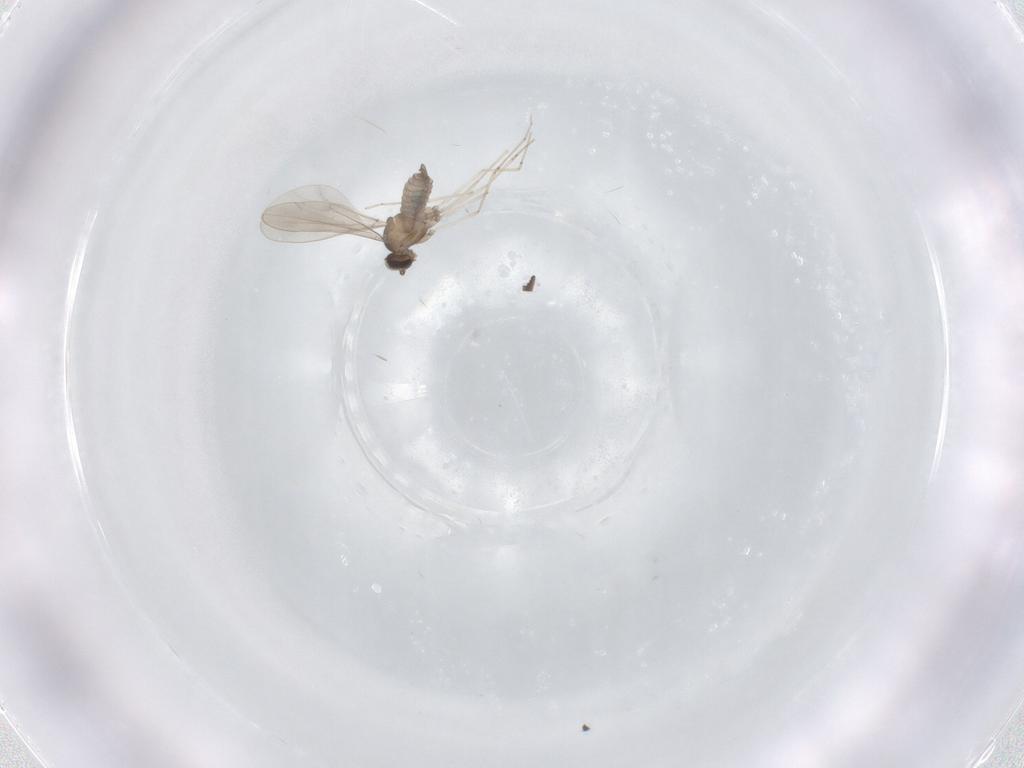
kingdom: Animalia
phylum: Arthropoda
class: Insecta
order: Diptera
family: Cecidomyiidae
